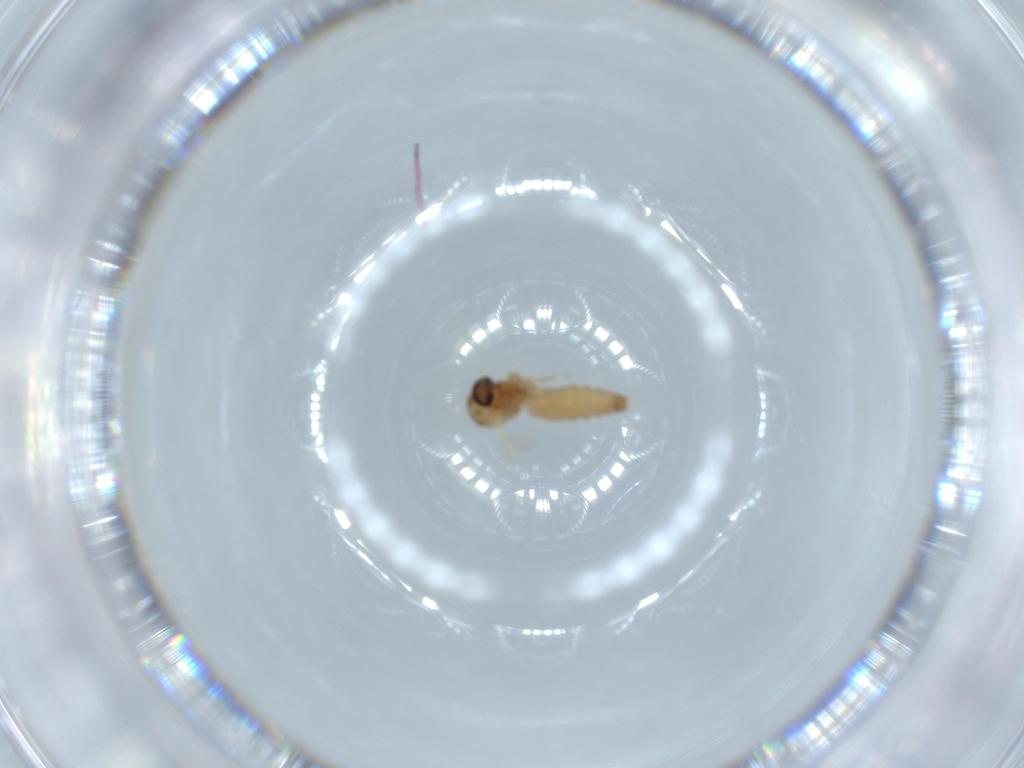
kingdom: Animalia
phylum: Arthropoda
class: Insecta
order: Diptera
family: Ceratopogonidae
